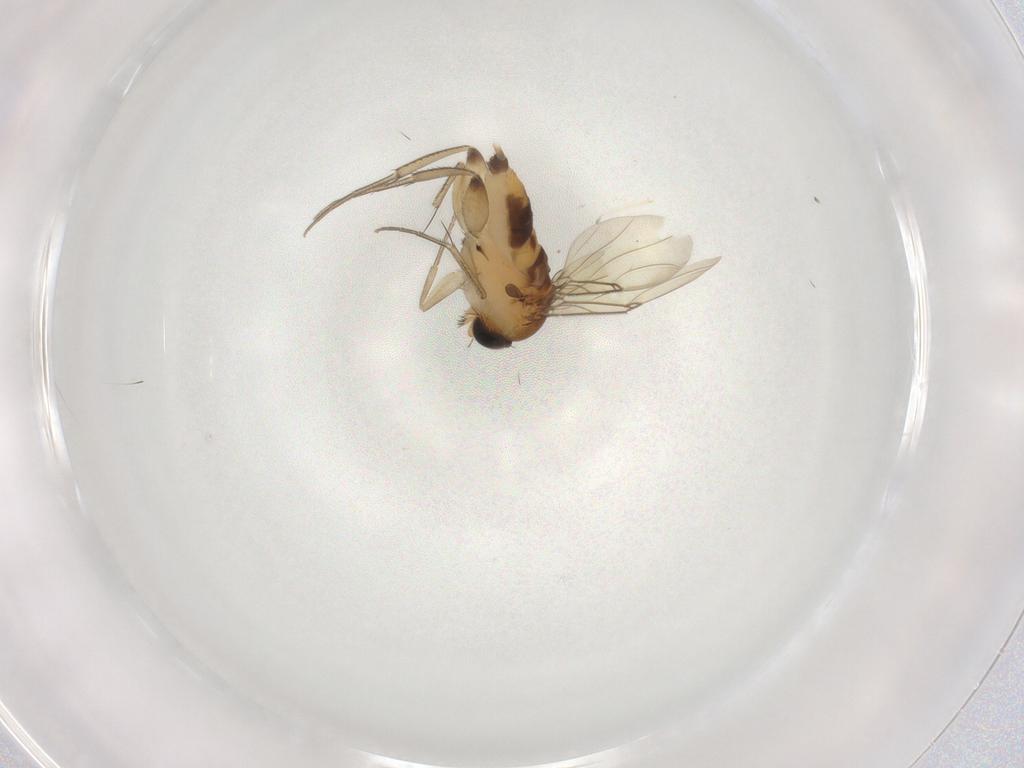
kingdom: Animalia
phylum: Arthropoda
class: Insecta
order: Diptera
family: Phoridae
